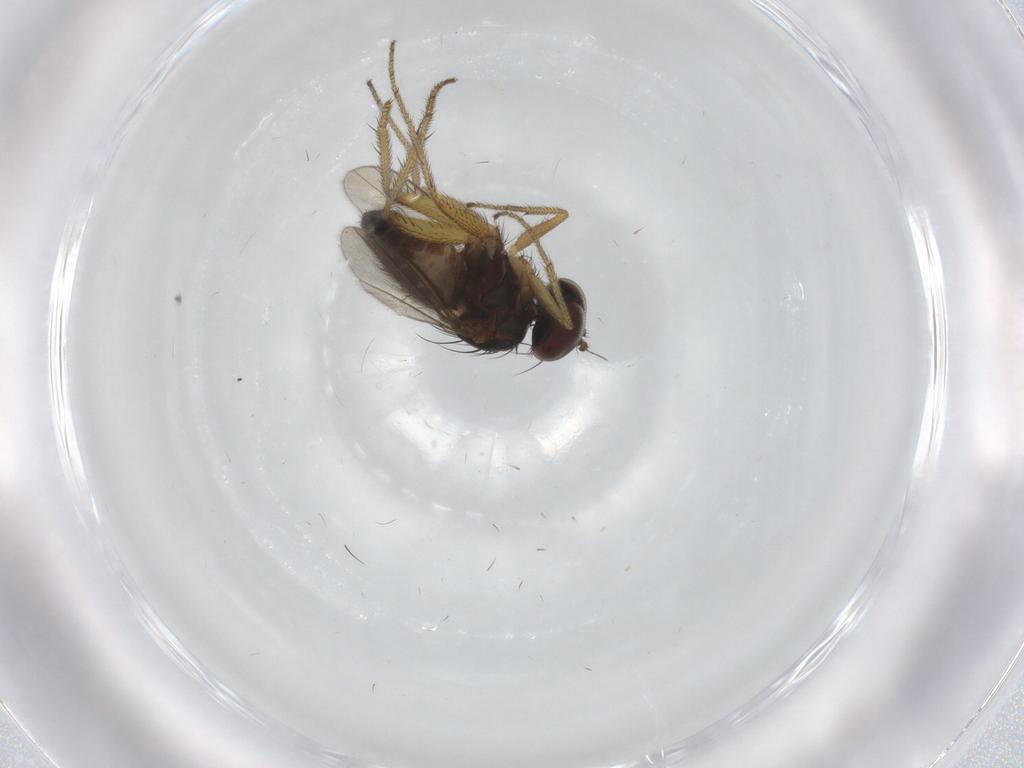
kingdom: Animalia
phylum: Arthropoda
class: Insecta
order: Diptera
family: Dolichopodidae
